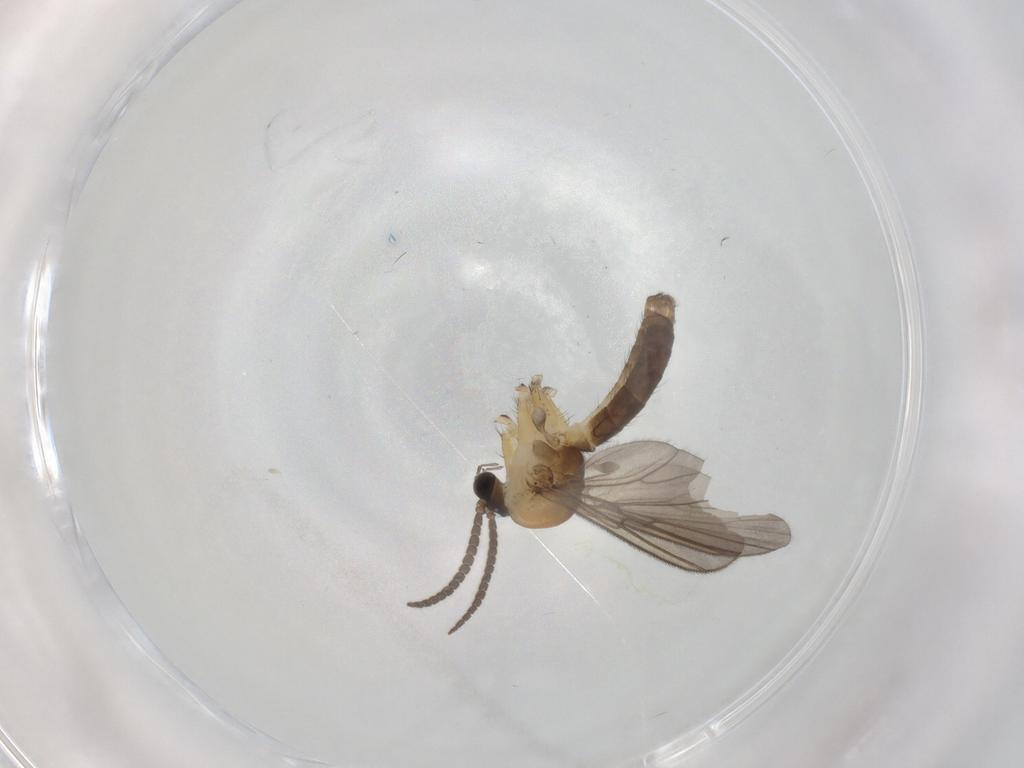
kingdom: Animalia
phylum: Arthropoda
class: Insecta
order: Diptera
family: Mycetophilidae
